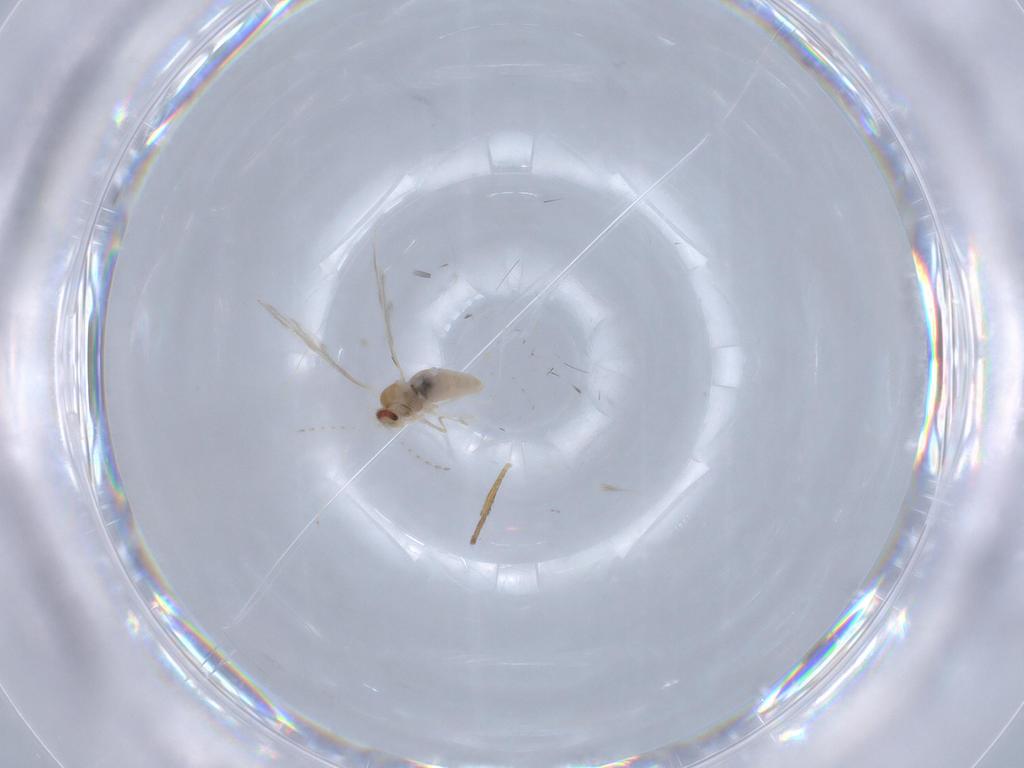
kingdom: Animalia
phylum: Arthropoda
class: Insecta
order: Diptera
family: Cecidomyiidae
